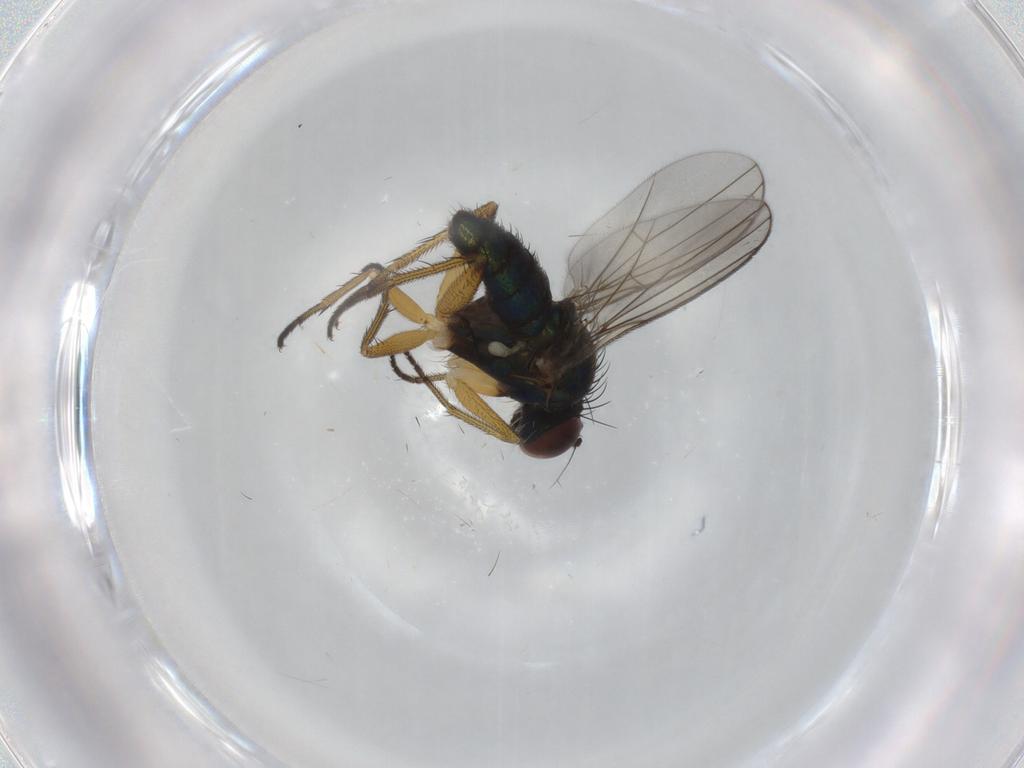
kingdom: Animalia
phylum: Arthropoda
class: Insecta
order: Diptera
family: Dolichopodidae
